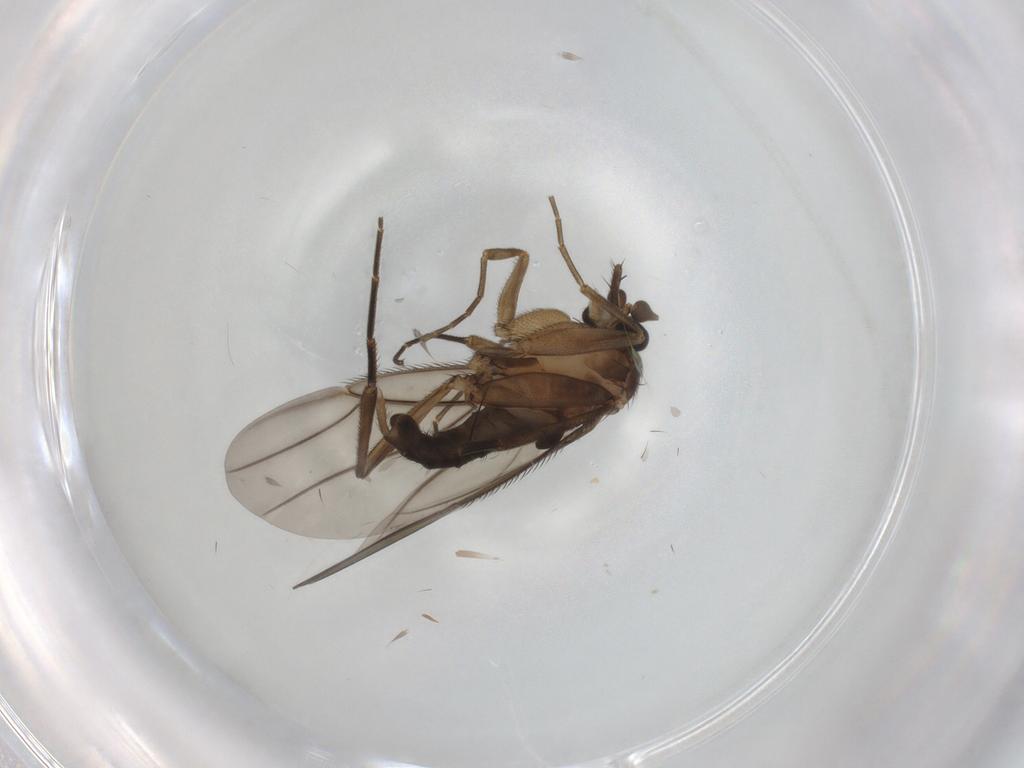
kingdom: Animalia
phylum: Arthropoda
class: Insecta
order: Diptera
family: Phoridae
